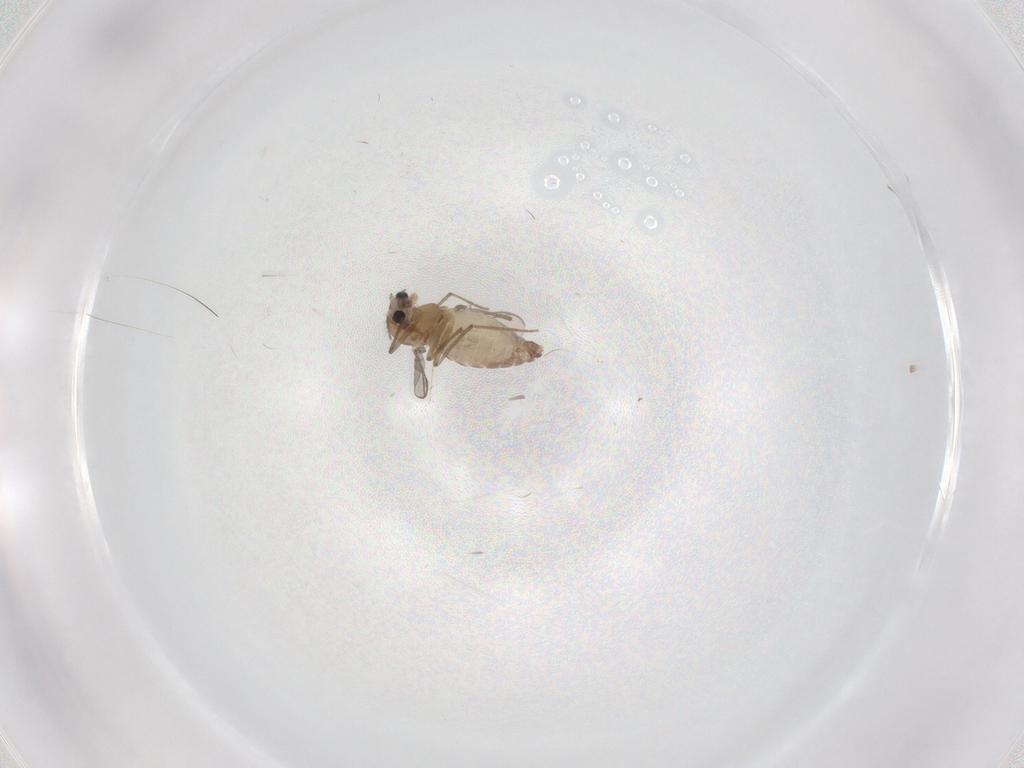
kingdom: Animalia
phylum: Arthropoda
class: Insecta
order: Diptera
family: Chironomidae
